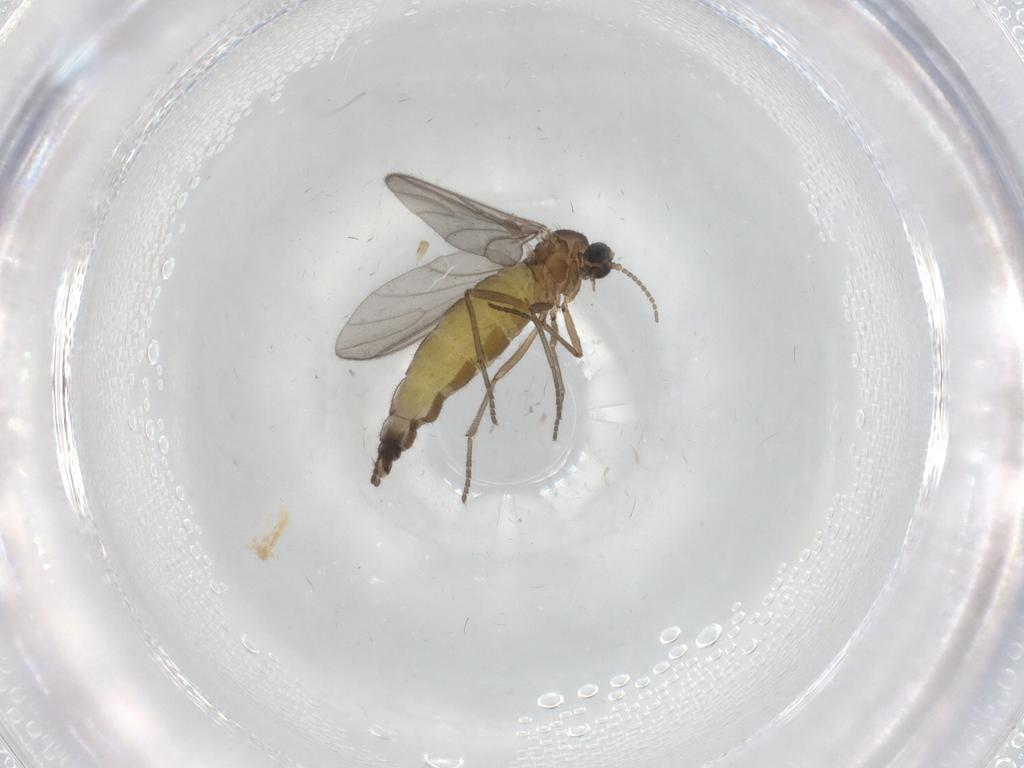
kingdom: Animalia
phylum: Arthropoda
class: Insecta
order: Diptera
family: Sciaridae
